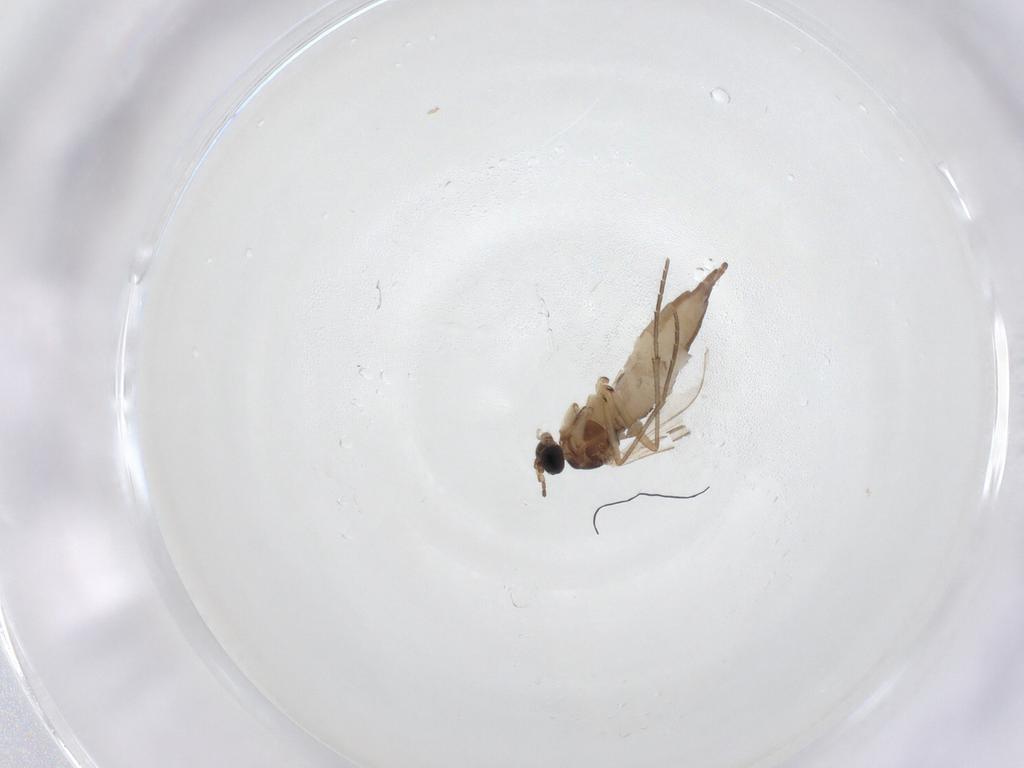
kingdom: Animalia
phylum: Arthropoda
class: Insecta
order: Diptera
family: Sciaridae
